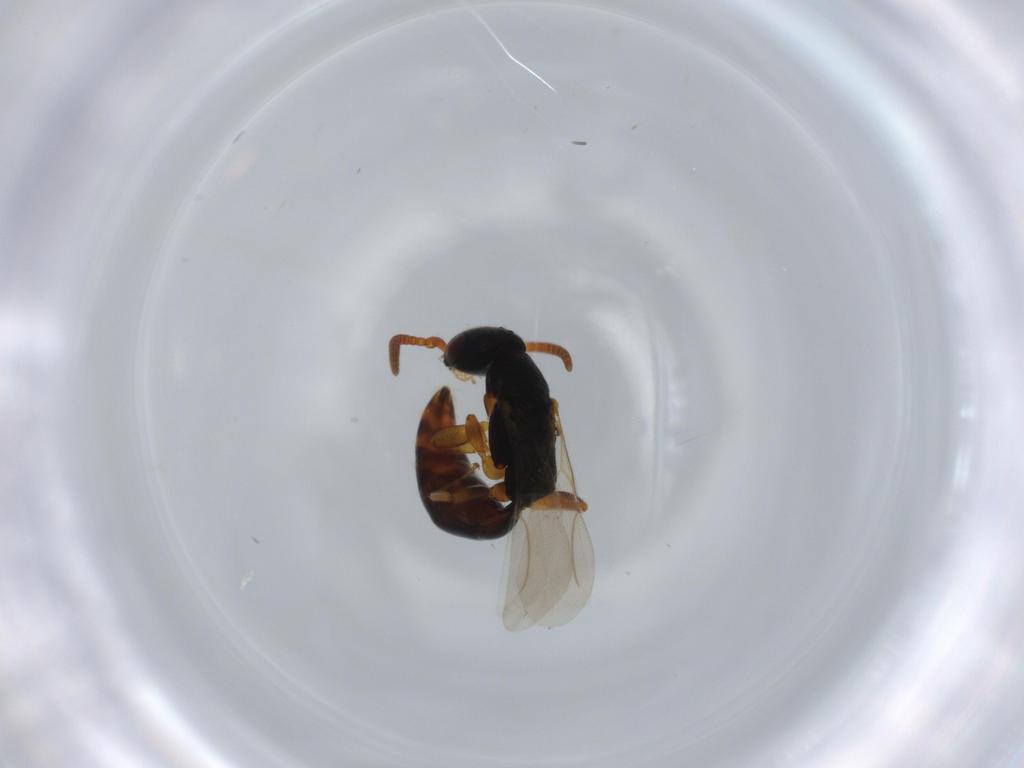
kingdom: Animalia
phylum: Arthropoda
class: Insecta
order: Hymenoptera
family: Bethylidae
